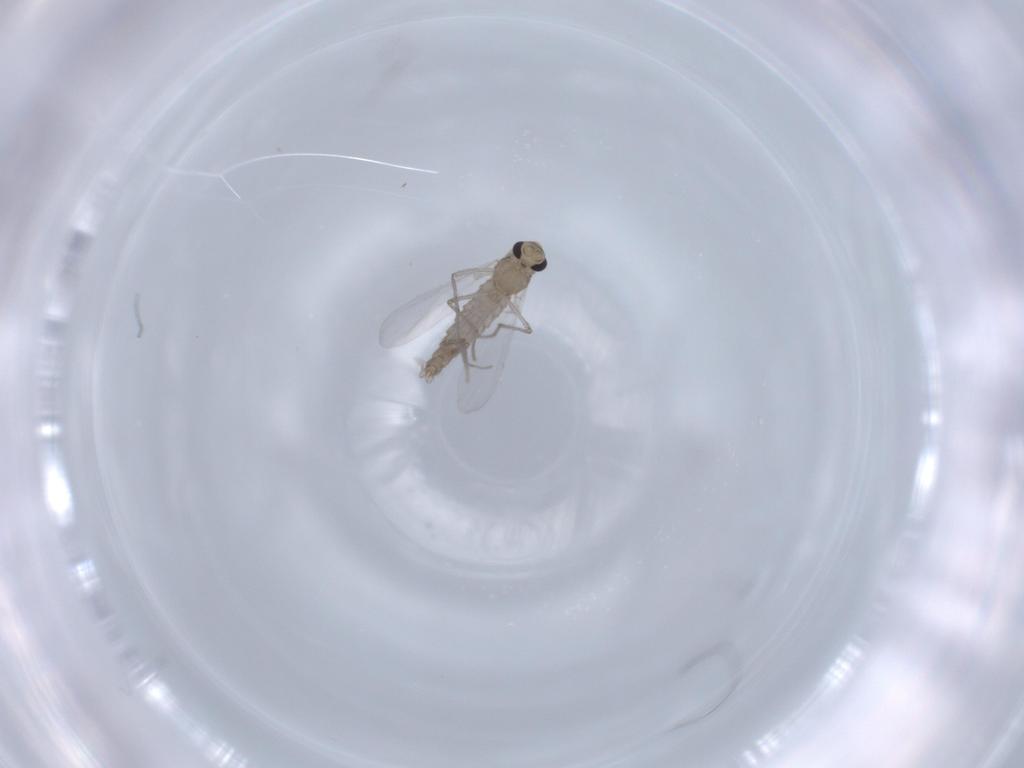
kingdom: Animalia
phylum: Arthropoda
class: Insecta
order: Diptera
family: Chironomidae
